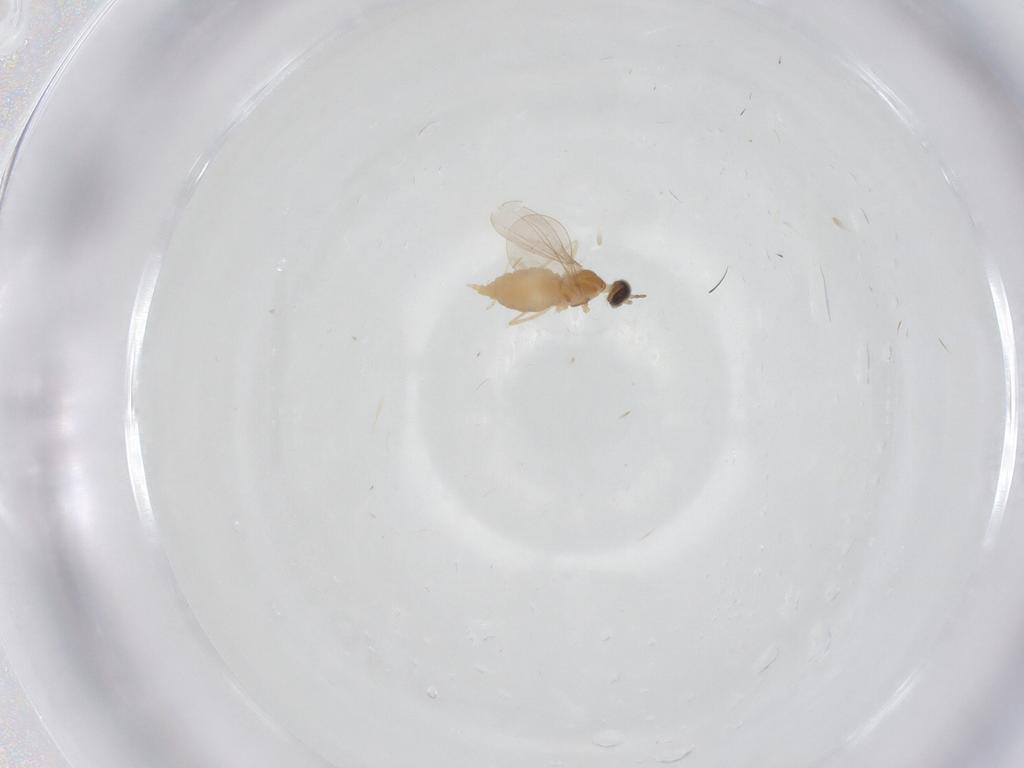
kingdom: Animalia
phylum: Arthropoda
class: Insecta
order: Diptera
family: Cecidomyiidae
